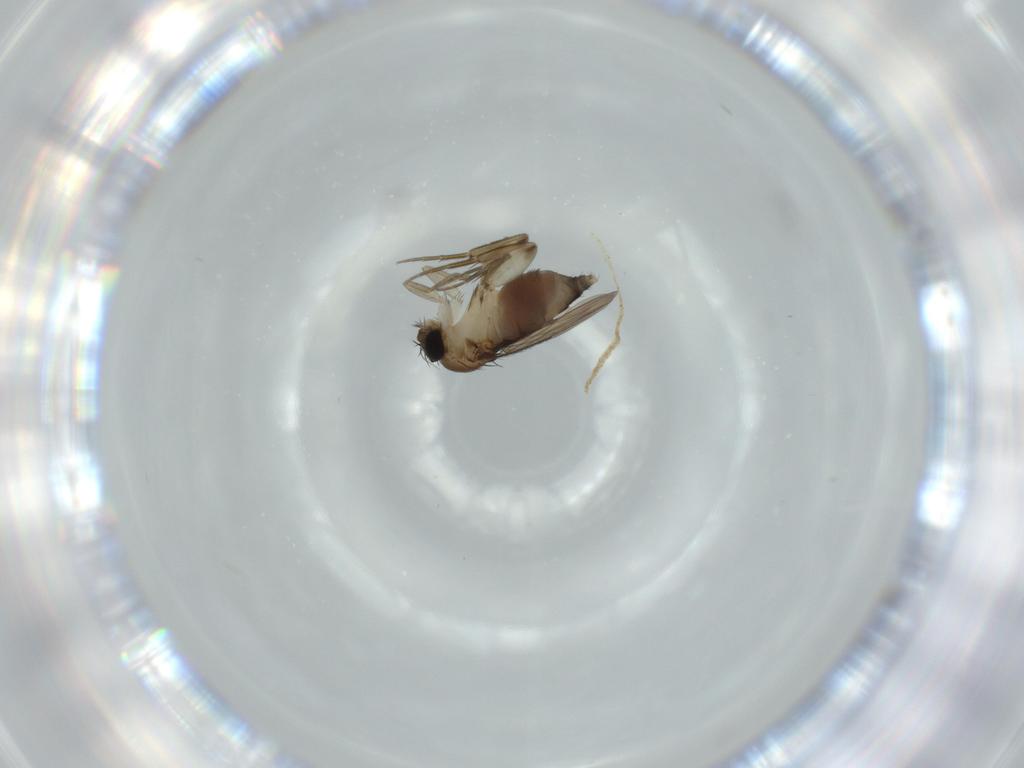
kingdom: Animalia
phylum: Arthropoda
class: Insecta
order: Diptera
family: Phoridae
